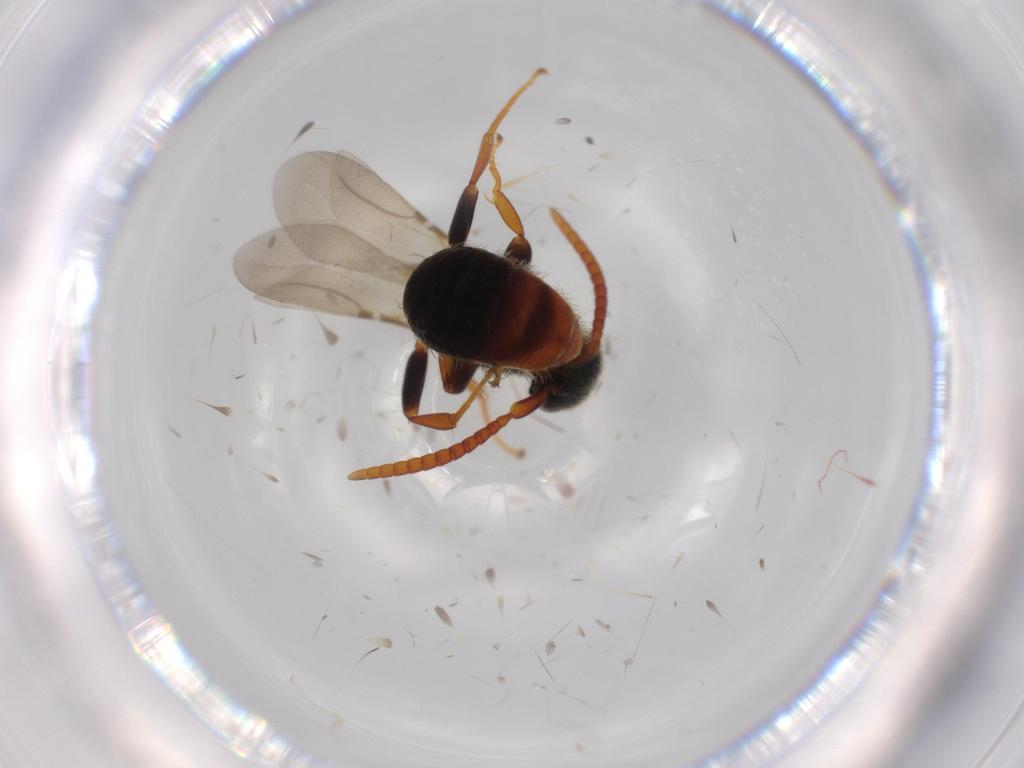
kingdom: Animalia
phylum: Arthropoda
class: Insecta
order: Hymenoptera
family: Bethylidae
